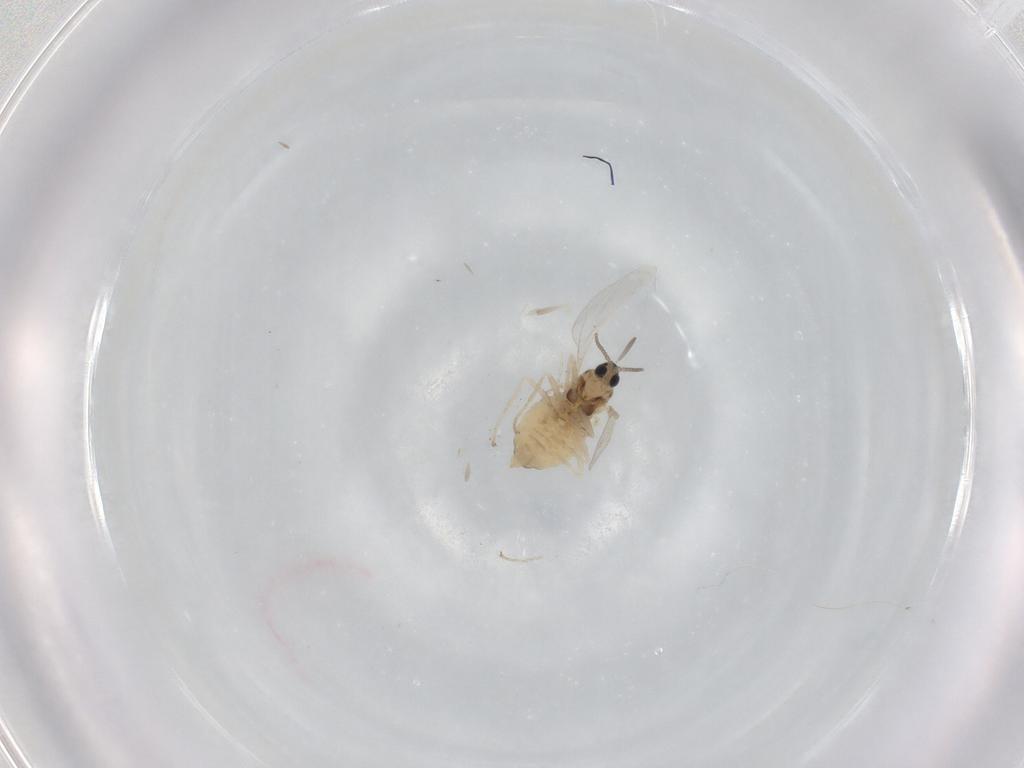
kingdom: Animalia
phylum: Arthropoda
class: Insecta
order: Diptera
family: Cecidomyiidae
